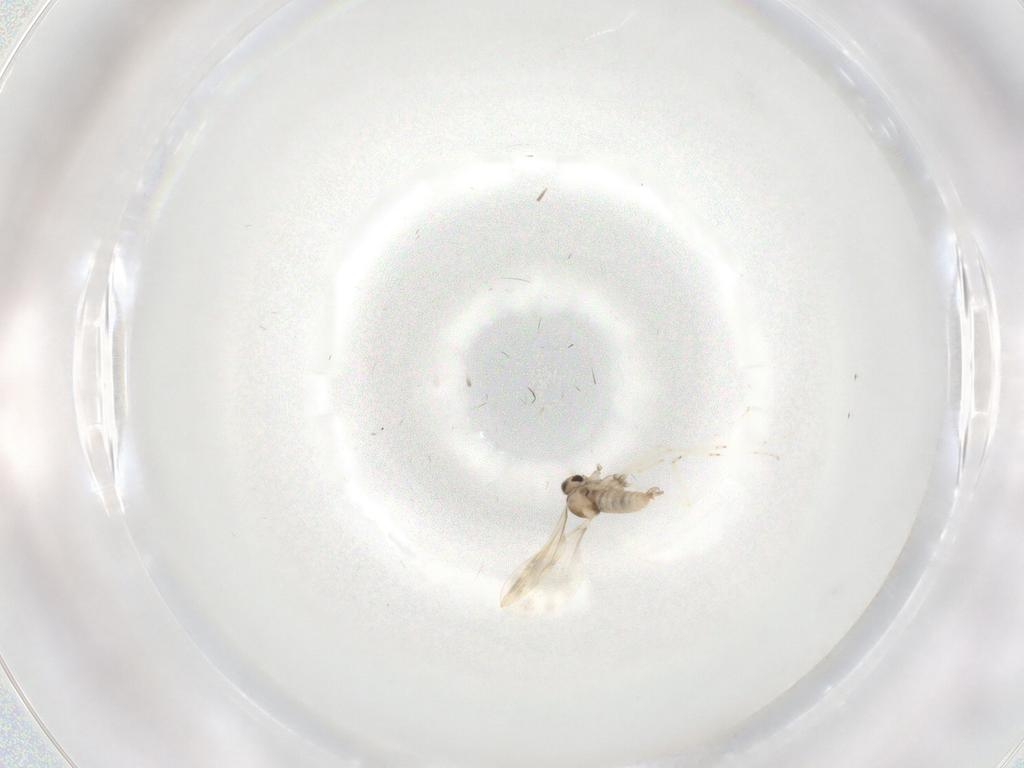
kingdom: Animalia
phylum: Arthropoda
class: Insecta
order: Diptera
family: Cecidomyiidae
